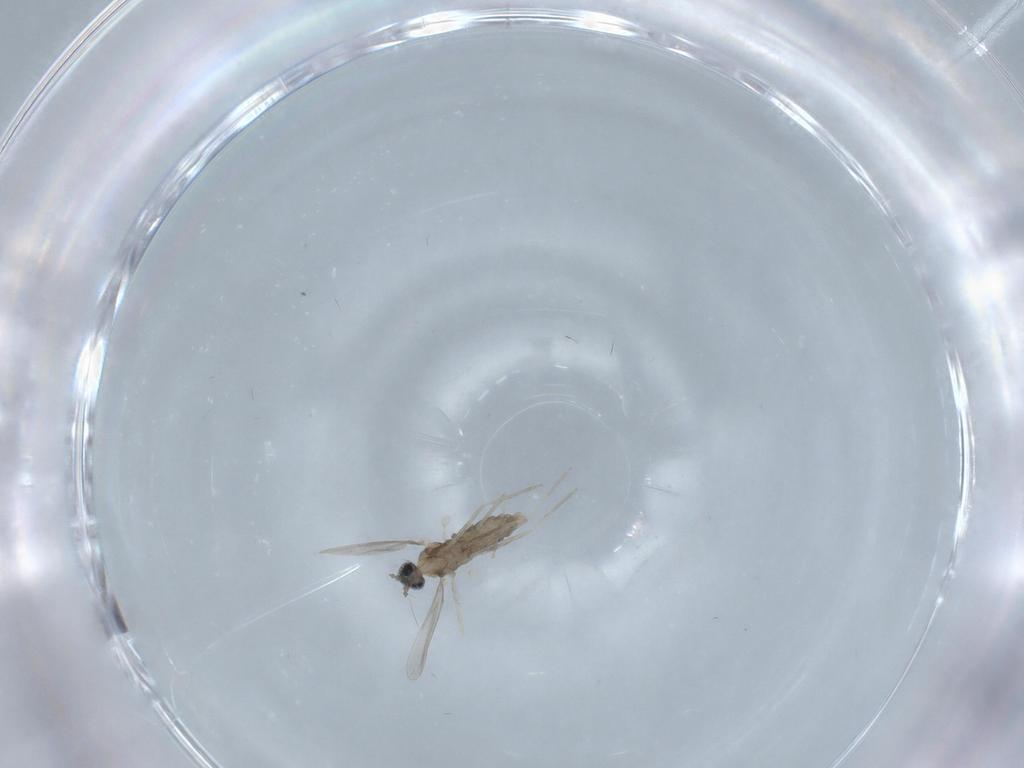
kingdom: Animalia
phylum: Arthropoda
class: Insecta
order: Diptera
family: Cecidomyiidae
